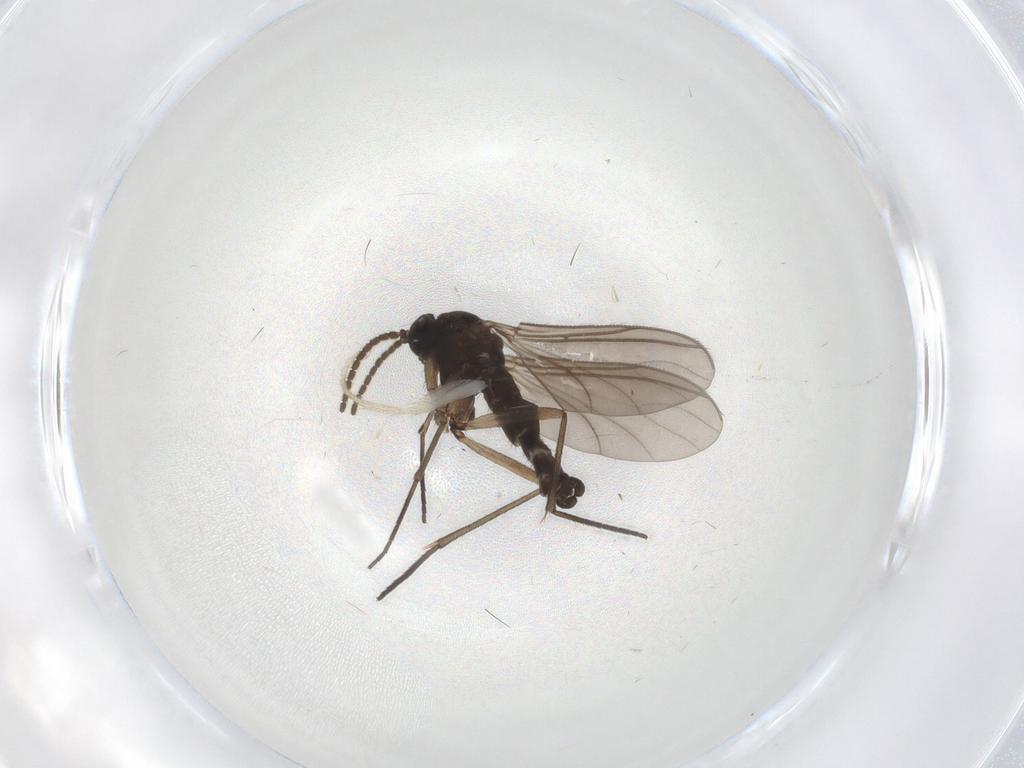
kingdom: Animalia
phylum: Arthropoda
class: Insecta
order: Diptera
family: Sciaridae
